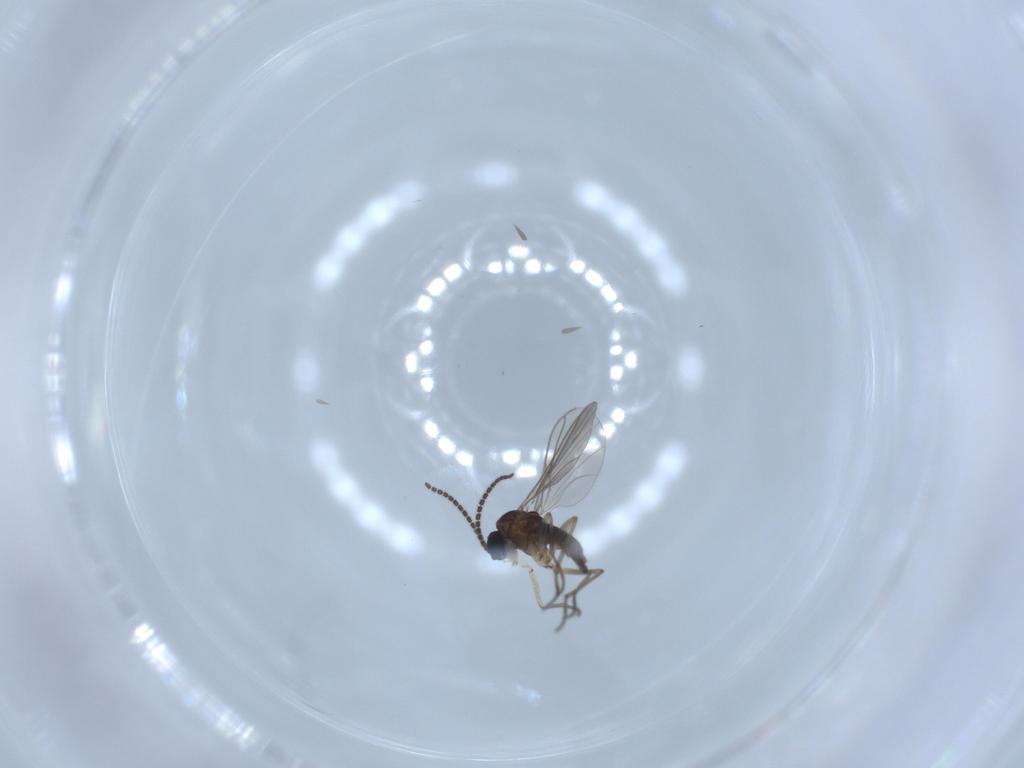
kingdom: Animalia
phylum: Arthropoda
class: Insecta
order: Diptera
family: Sciaridae
